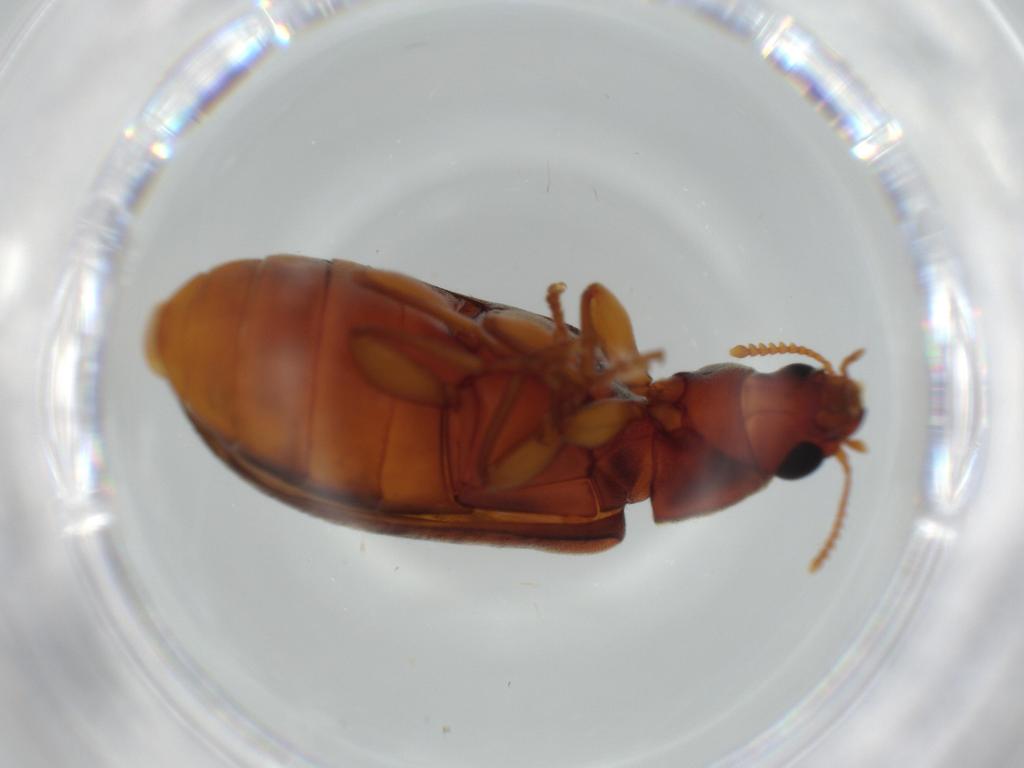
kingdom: Animalia
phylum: Arthropoda
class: Insecta
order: Coleoptera
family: Mycteridae
